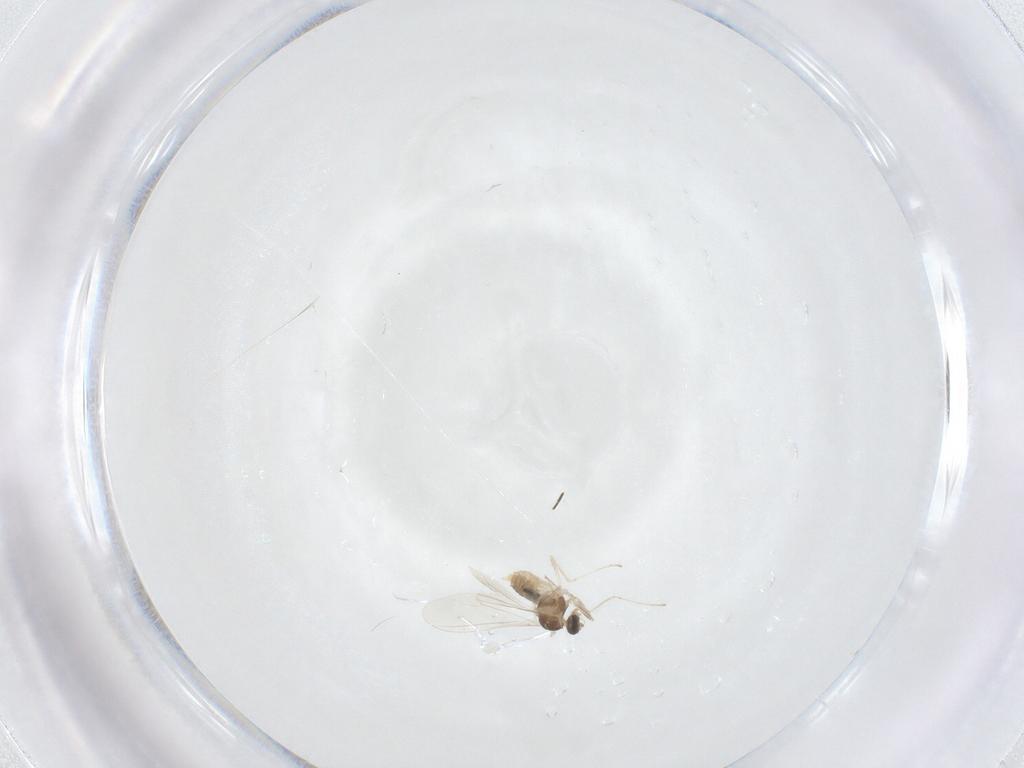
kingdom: Animalia
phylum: Arthropoda
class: Insecta
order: Diptera
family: Cecidomyiidae
